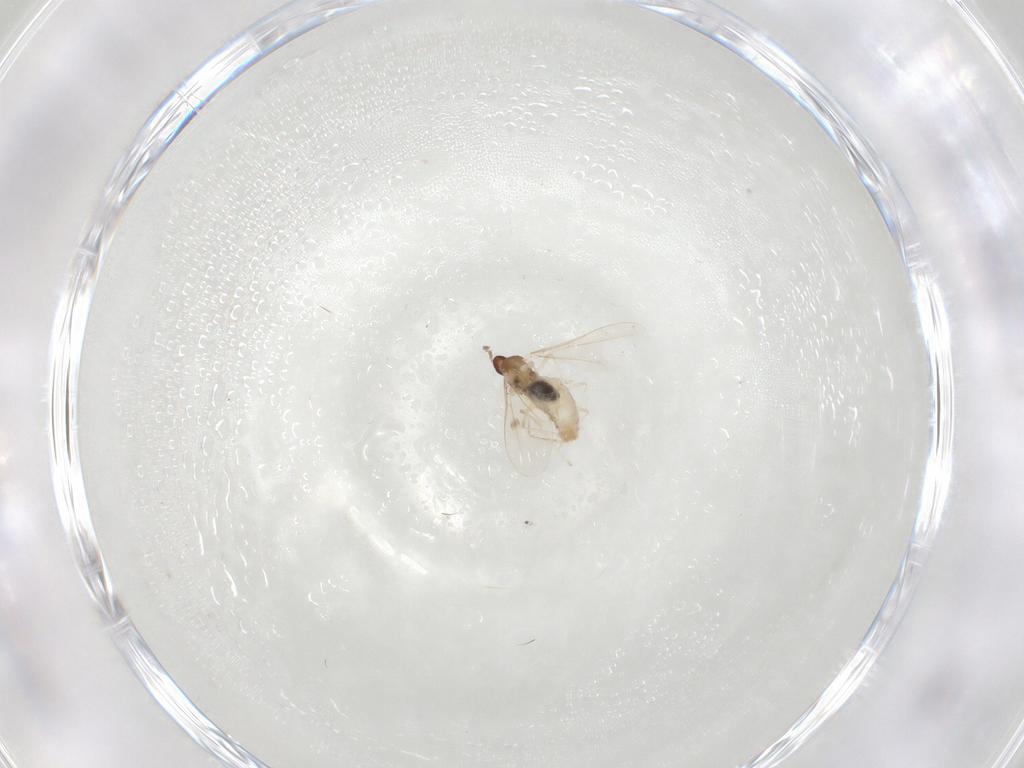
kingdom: Animalia
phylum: Arthropoda
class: Insecta
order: Diptera
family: Cecidomyiidae
